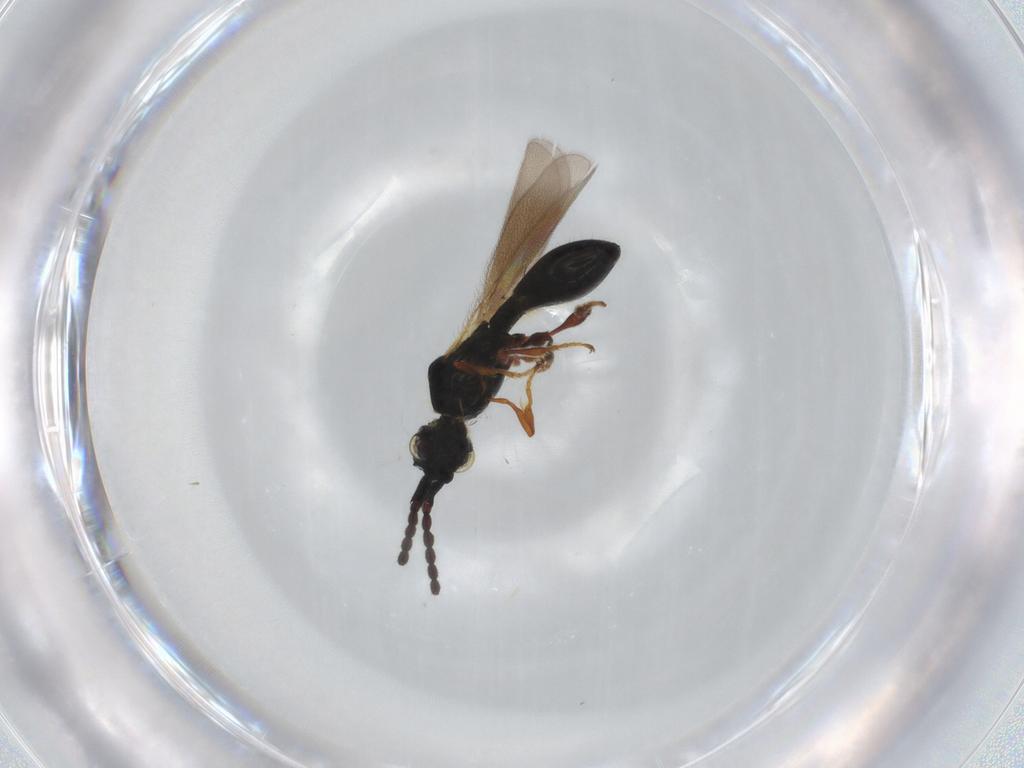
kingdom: Animalia
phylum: Arthropoda
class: Insecta
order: Hymenoptera
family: Diapriidae
